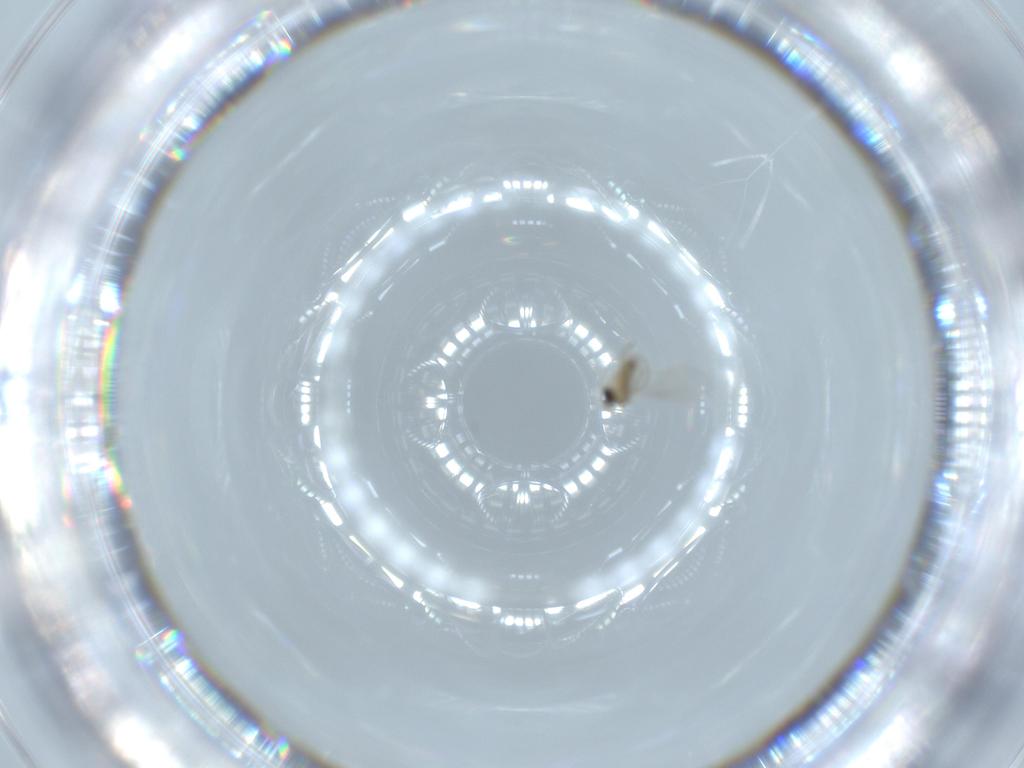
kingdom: Animalia
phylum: Arthropoda
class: Insecta
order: Diptera
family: Cecidomyiidae
